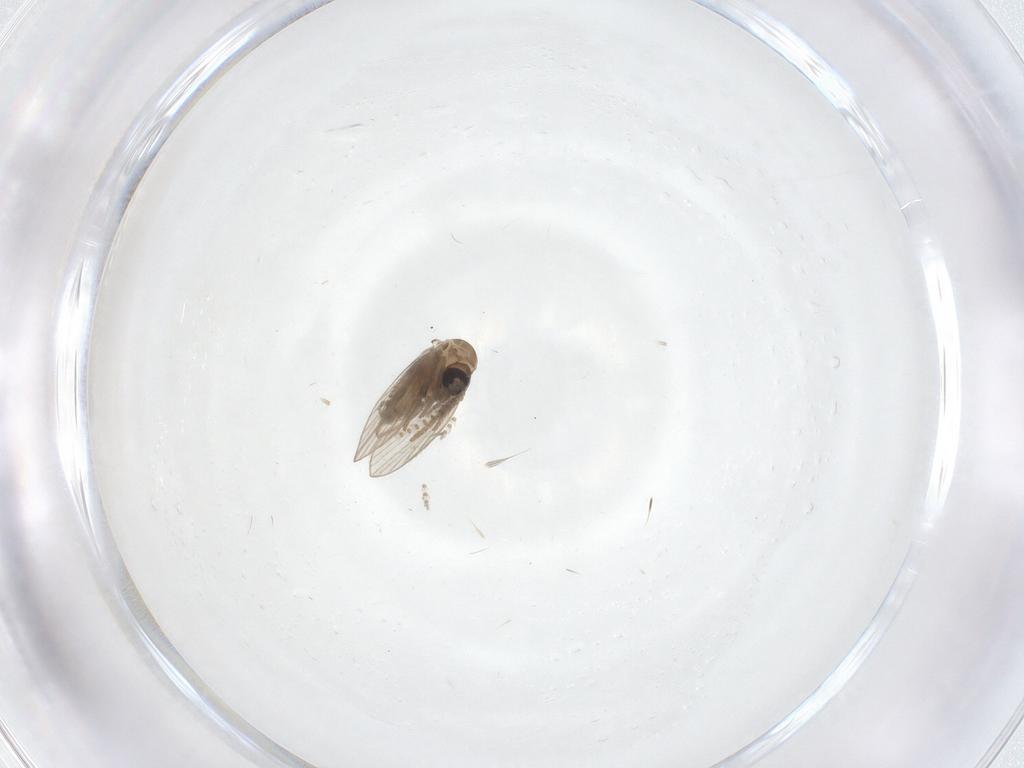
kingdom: Animalia
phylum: Arthropoda
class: Insecta
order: Diptera
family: Psychodidae
